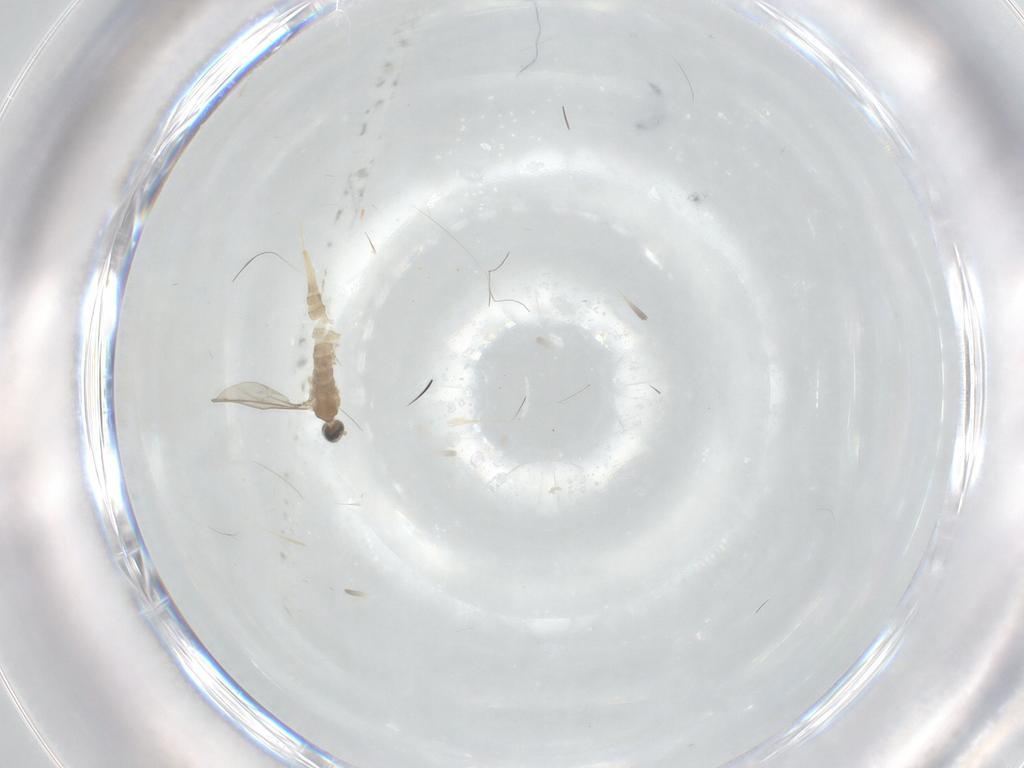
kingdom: Animalia
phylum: Arthropoda
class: Insecta
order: Diptera
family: Cecidomyiidae
